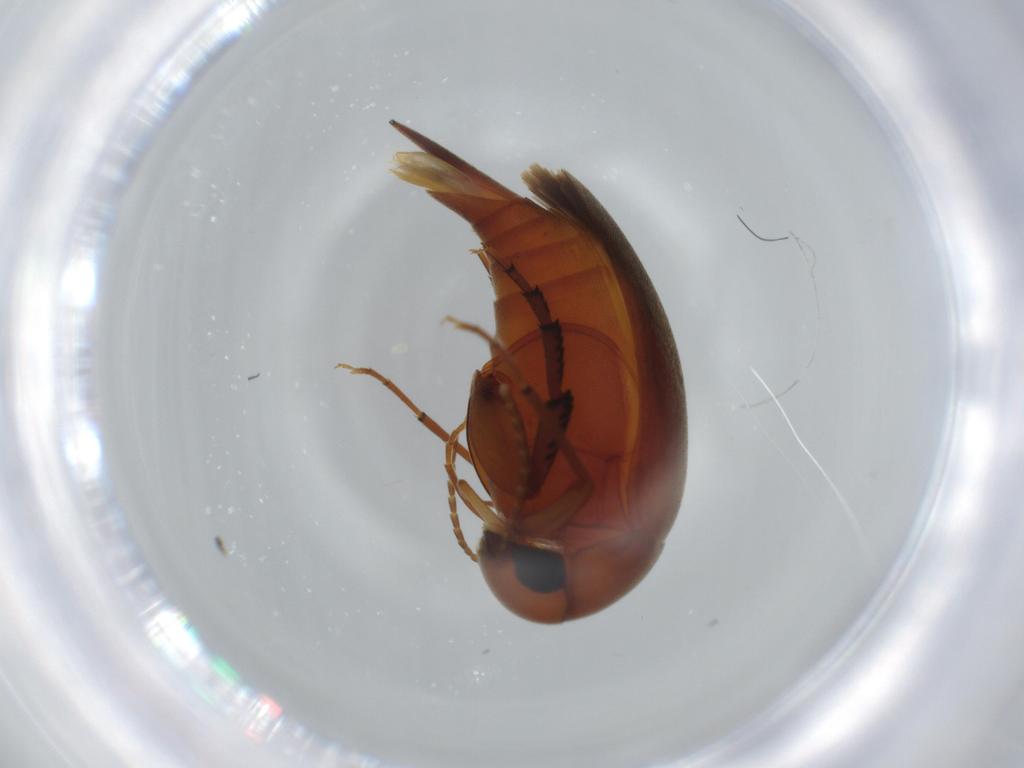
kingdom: Animalia
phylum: Arthropoda
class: Insecta
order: Coleoptera
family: Mordellidae
